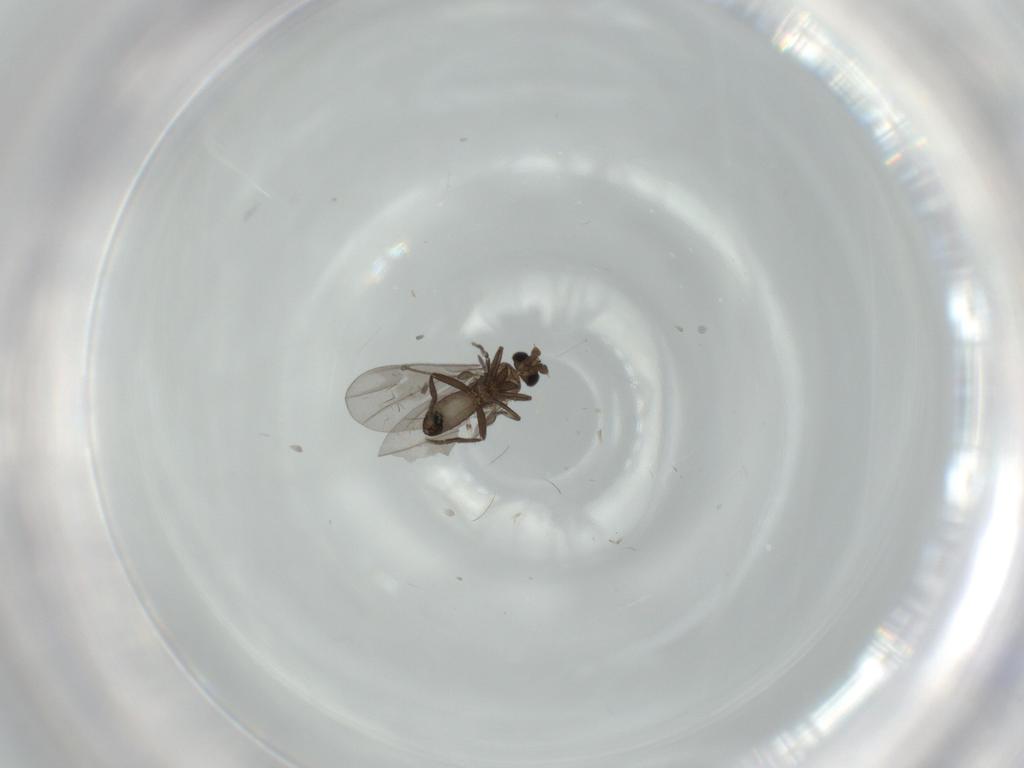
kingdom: Animalia
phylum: Arthropoda
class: Insecta
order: Diptera
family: Phoridae
